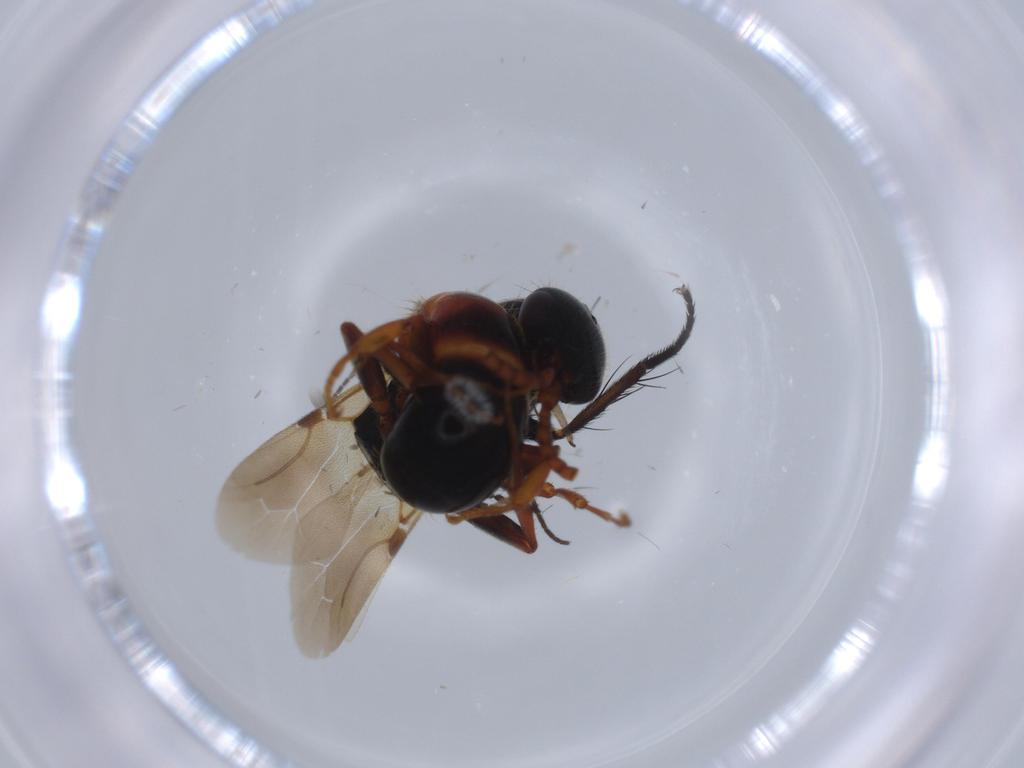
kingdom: Animalia
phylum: Arthropoda
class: Insecta
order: Hymenoptera
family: Bethylidae
